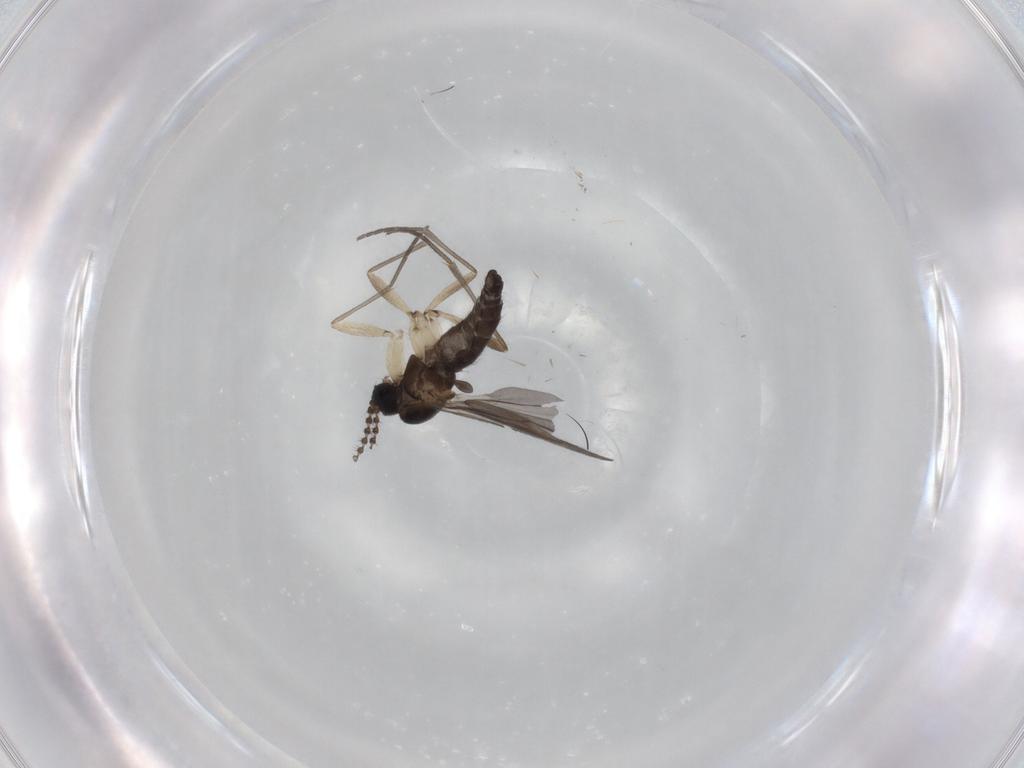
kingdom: Animalia
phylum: Arthropoda
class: Insecta
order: Diptera
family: Sciaridae
